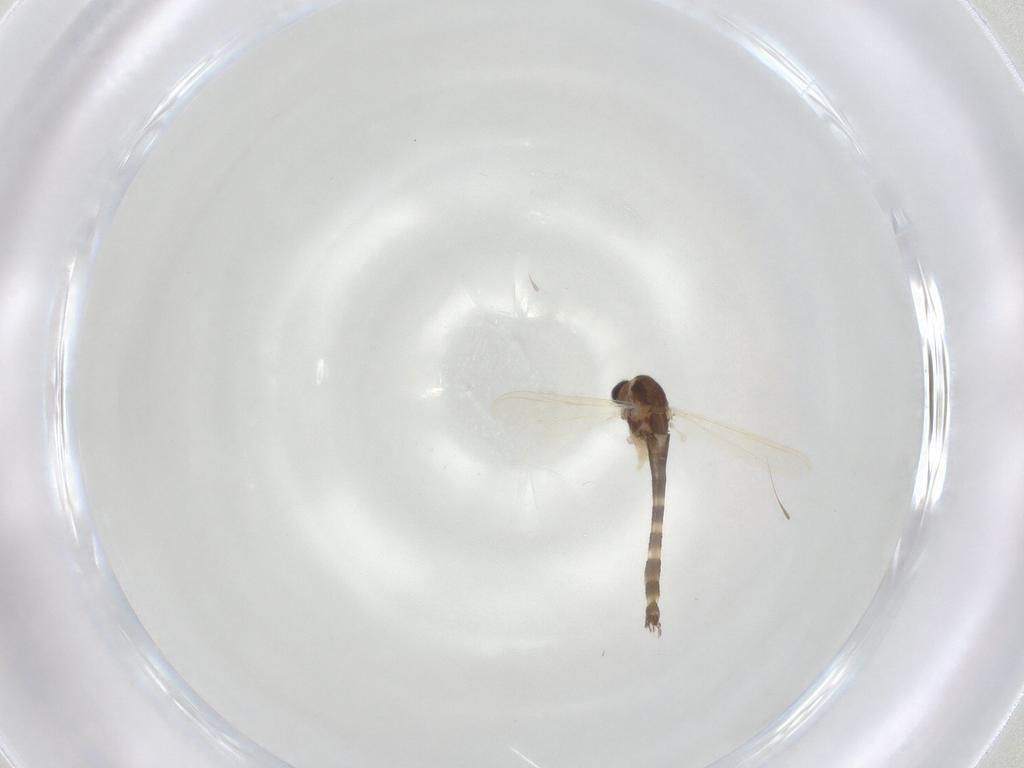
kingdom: Animalia
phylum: Arthropoda
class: Insecta
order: Diptera
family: Chironomidae
